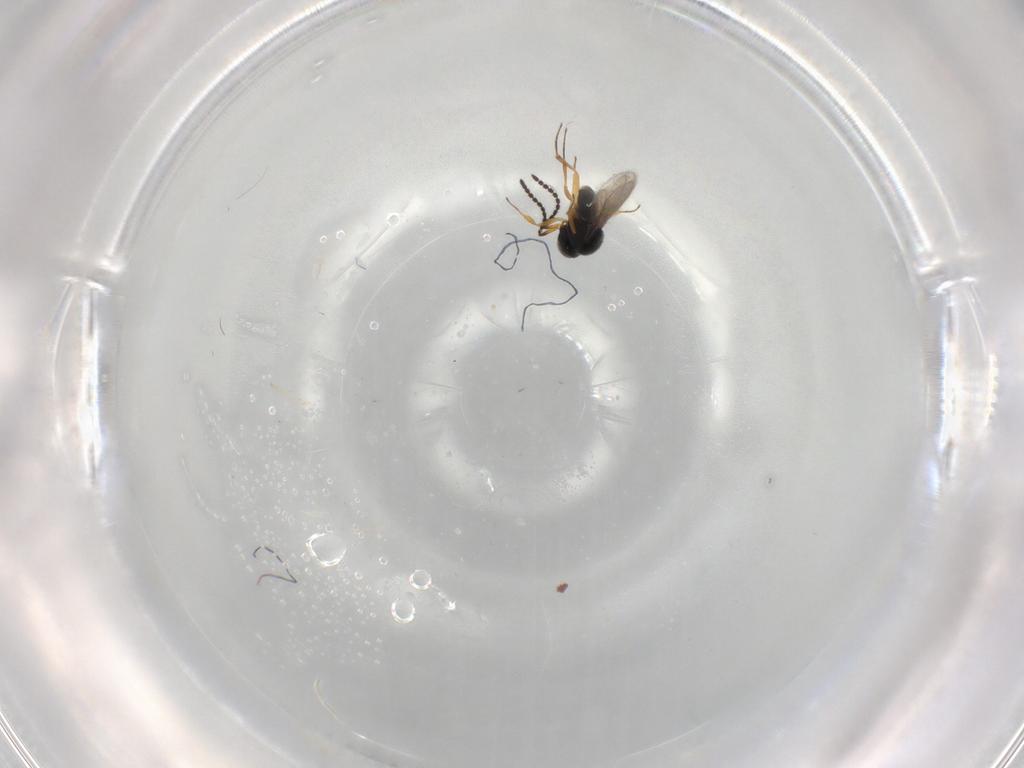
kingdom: Animalia
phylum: Arthropoda
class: Insecta
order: Hymenoptera
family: Scelionidae
